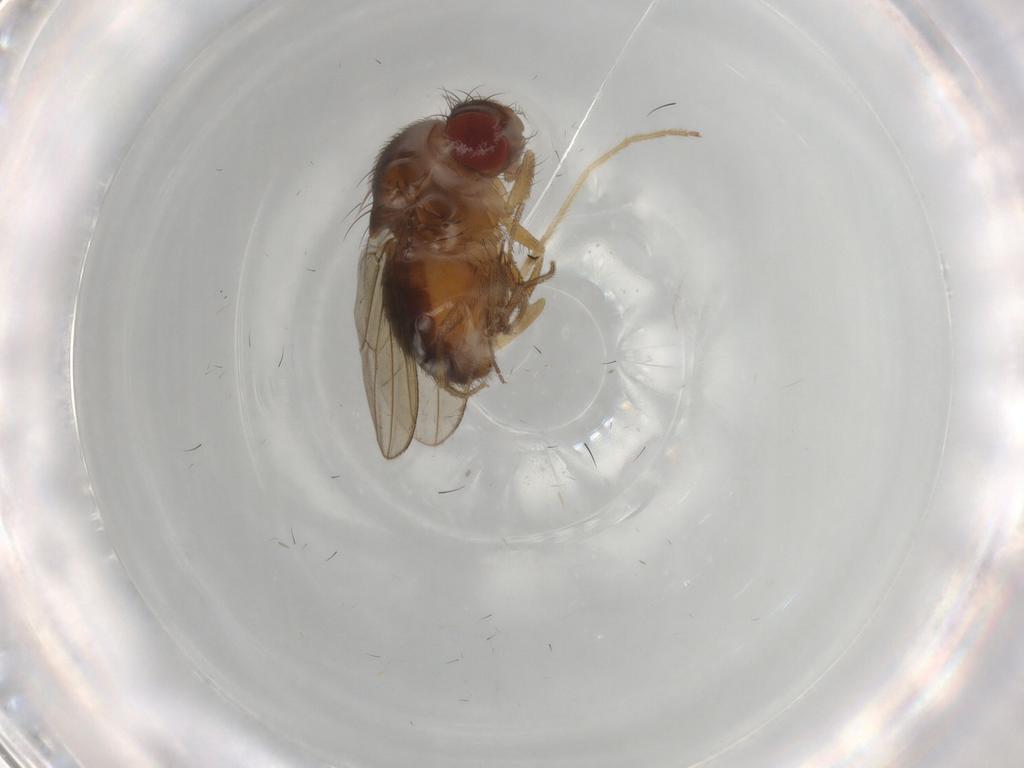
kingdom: Animalia
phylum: Arthropoda
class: Insecta
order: Diptera
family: Drosophilidae
